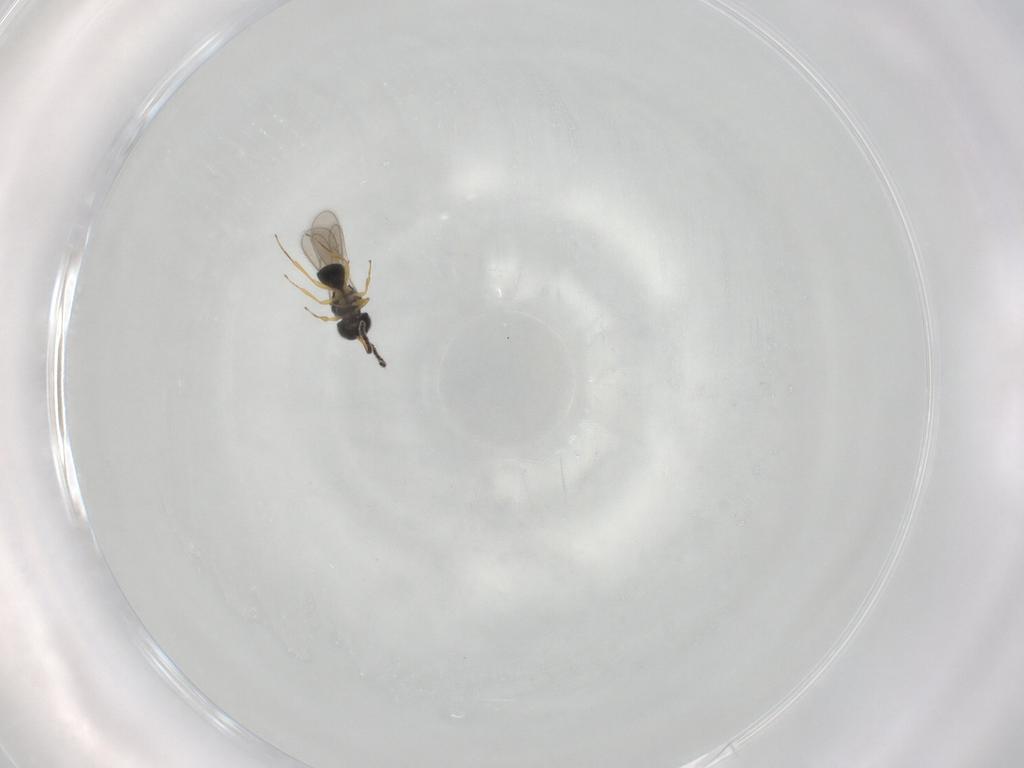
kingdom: Animalia
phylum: Arthropoda
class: Insecta
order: Hymenoptera
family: Scelionidae
